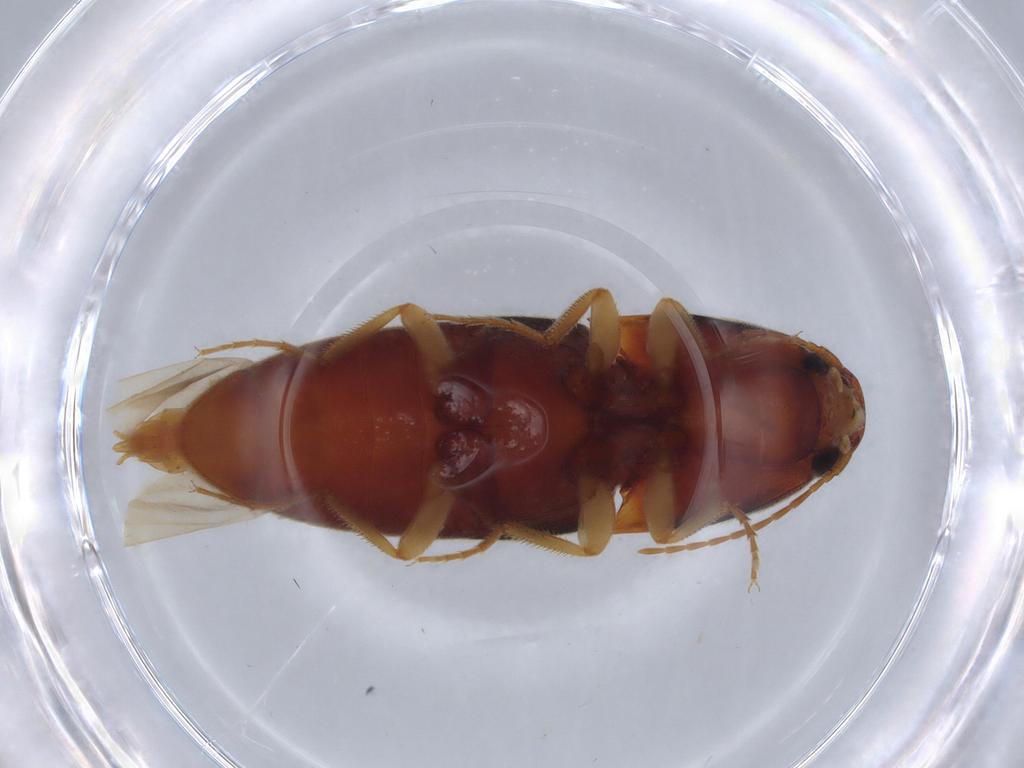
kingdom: Animalia
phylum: Arthropoda
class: Insecta
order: Coleoptera
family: Elateridae
